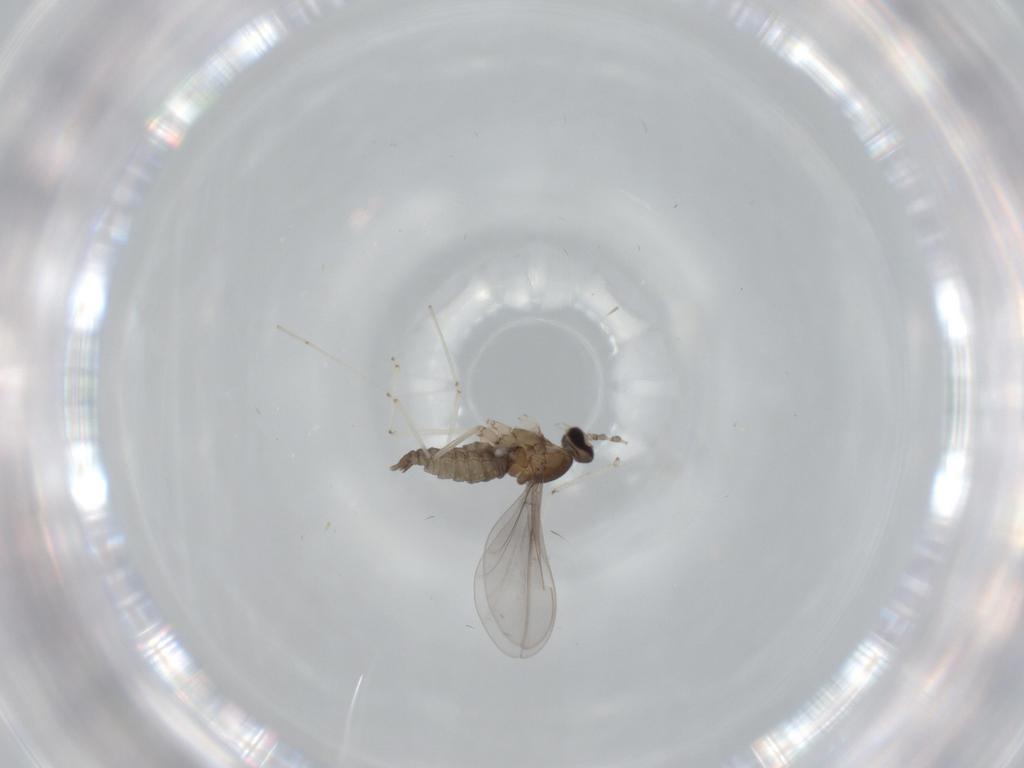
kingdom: Animalia
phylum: Arthropoda
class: Insecta
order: Diptera
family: Cecidomyiidae
